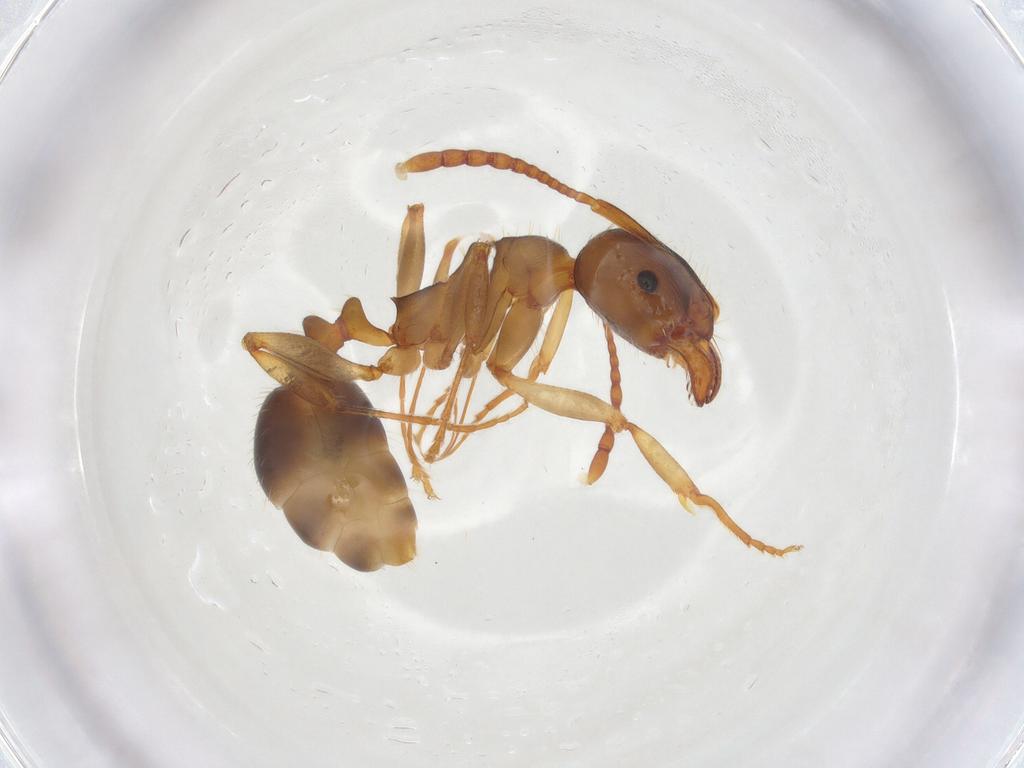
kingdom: Animalia
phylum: Arthropoda
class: Insecta
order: Hymenoptera
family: Formicidae
